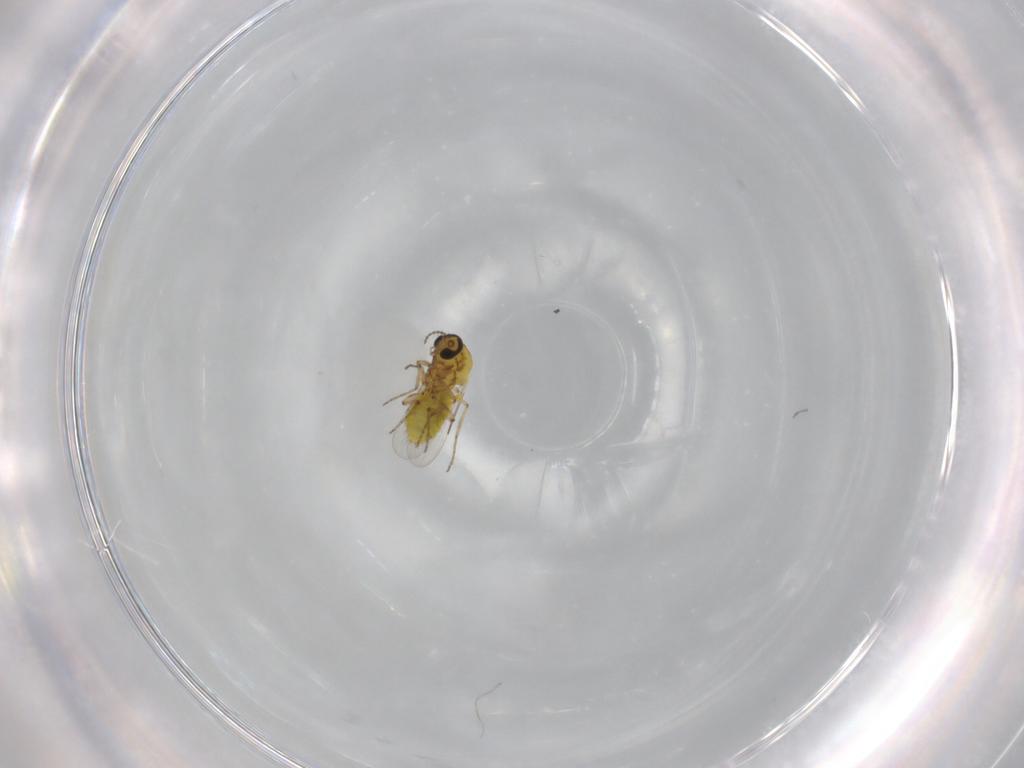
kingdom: Animalia
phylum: Arthropoda
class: Insecta
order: Diptera
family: Ceratopogonidae
